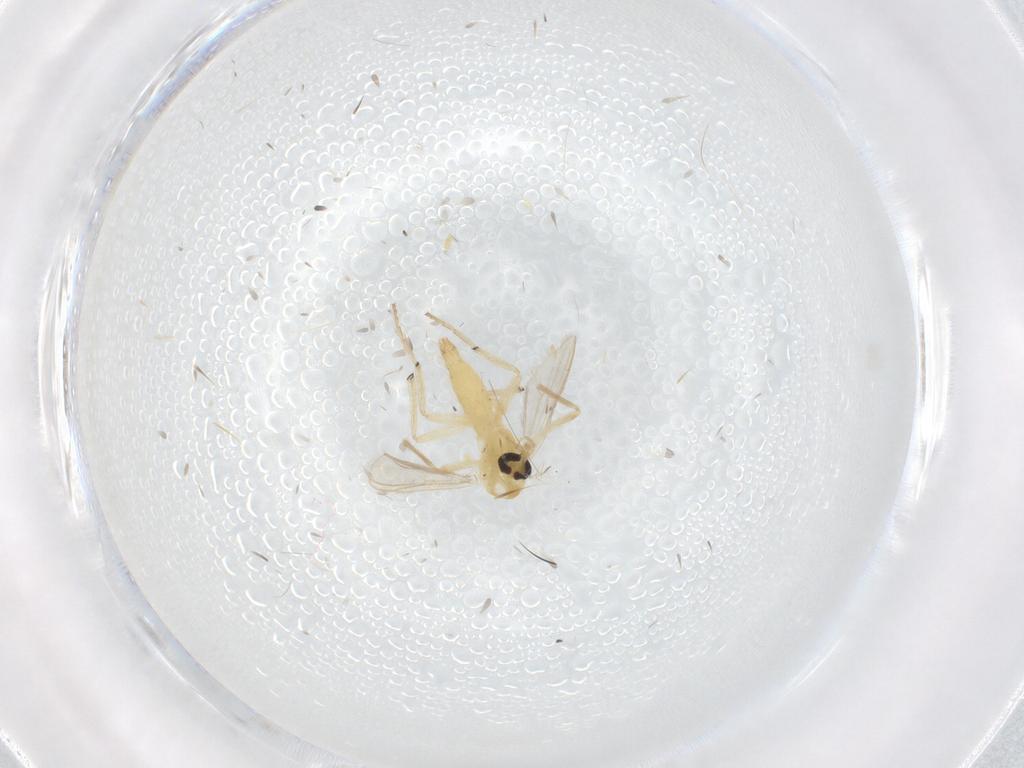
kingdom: Animalia
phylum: Arthropoda
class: Insecta
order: Diptera
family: Chironomidae
